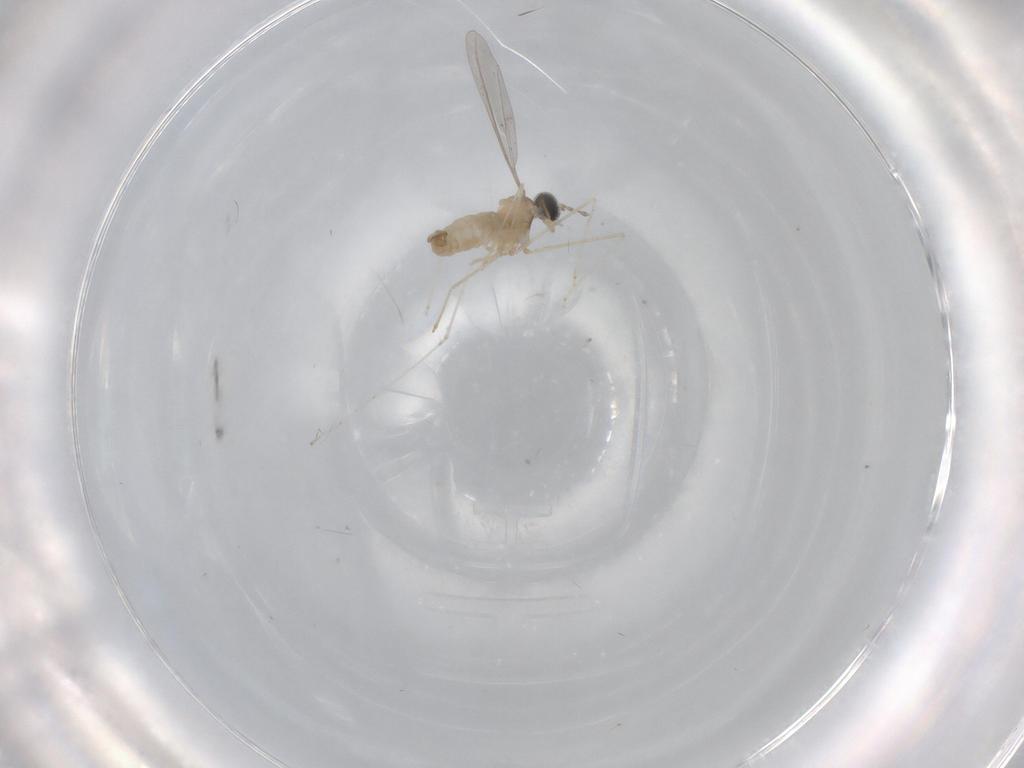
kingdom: Animalia
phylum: Arthropoda
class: Insecta
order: Diptera
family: Cecidomyiidae
